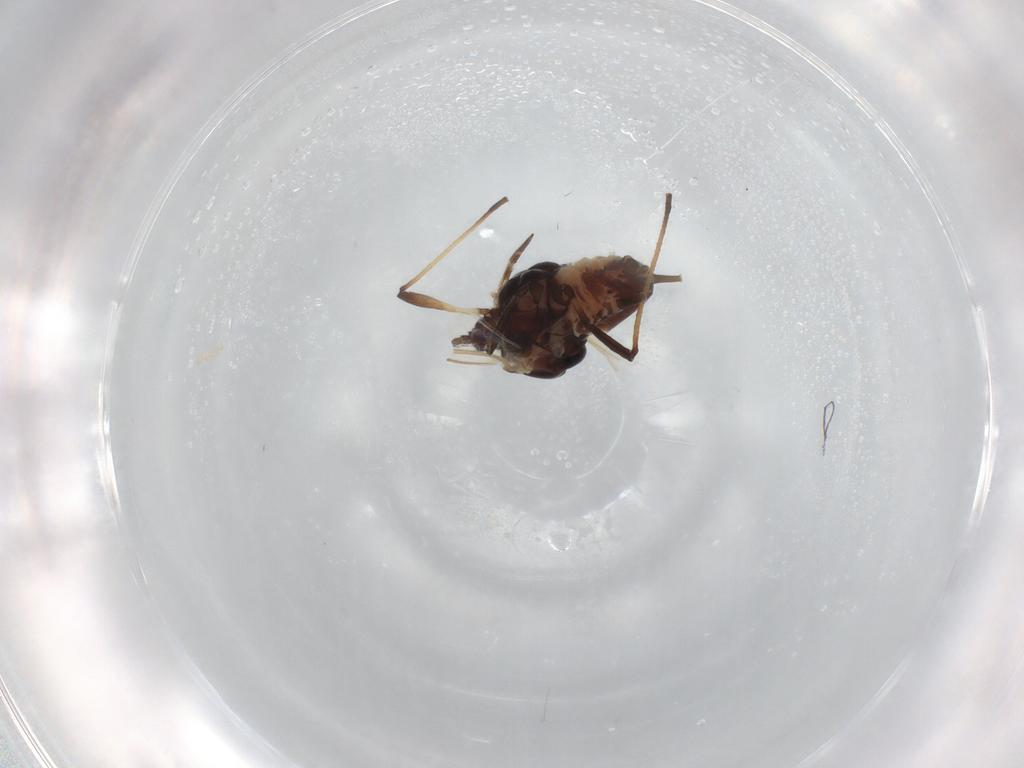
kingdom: Animalia
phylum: Arthropoda
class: Insecta
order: Hemiptera
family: Aphididae
